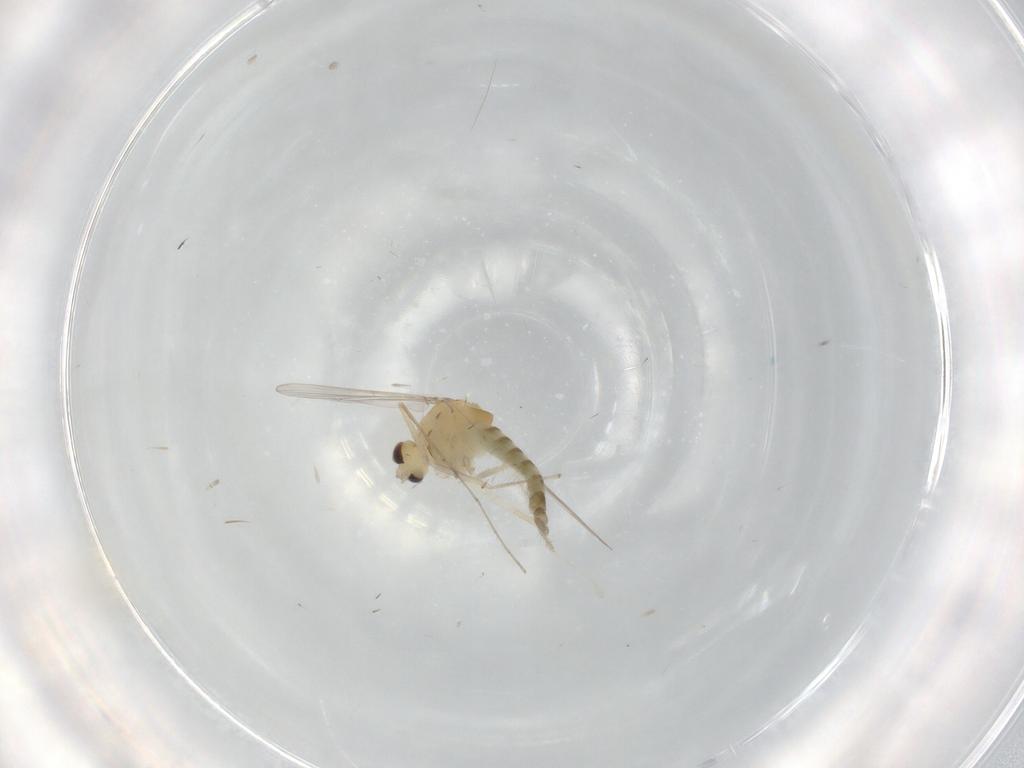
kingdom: Animalia
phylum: Arthropoda
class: Insecta
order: Diptera
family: Chironomidae
